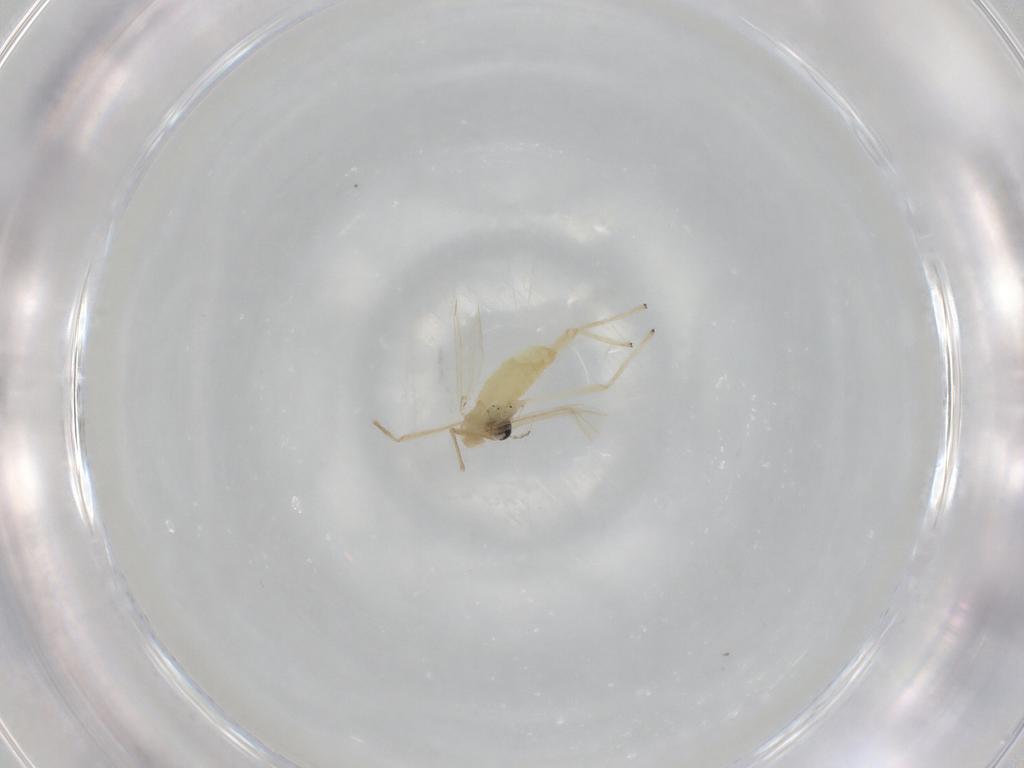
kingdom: Animalia
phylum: Arthropoda
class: Insecta
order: Diptera
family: Chironomidae
